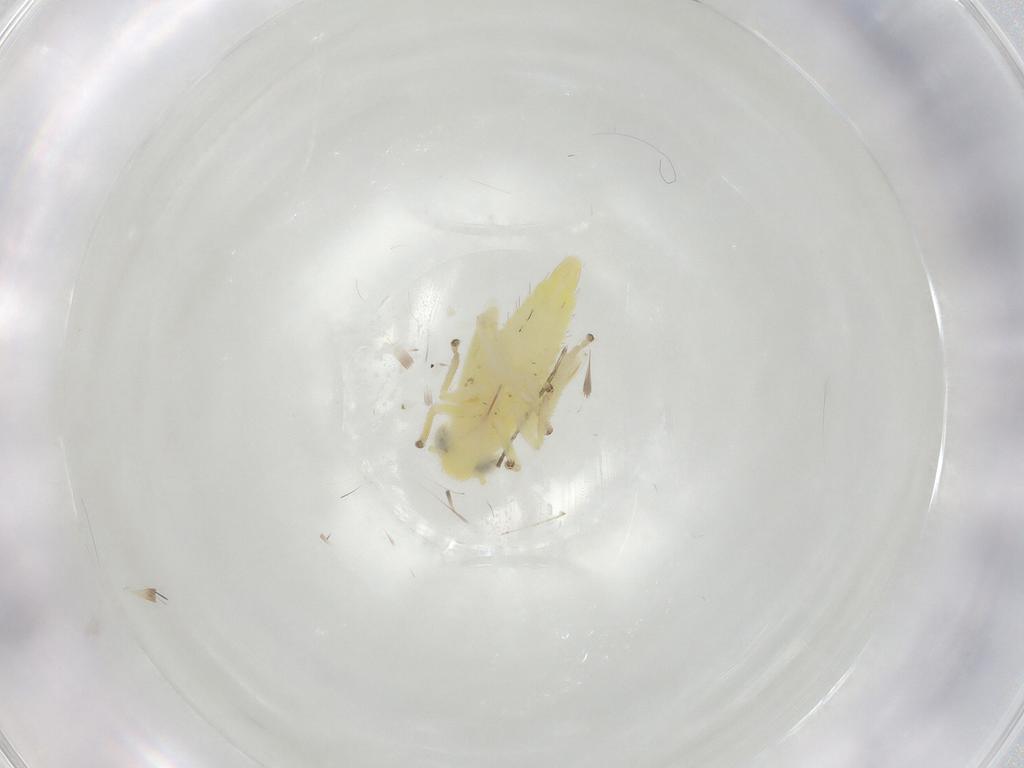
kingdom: Animalia
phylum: Arthropoda
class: Insecta
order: Hemiptera
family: Cicadellidae
